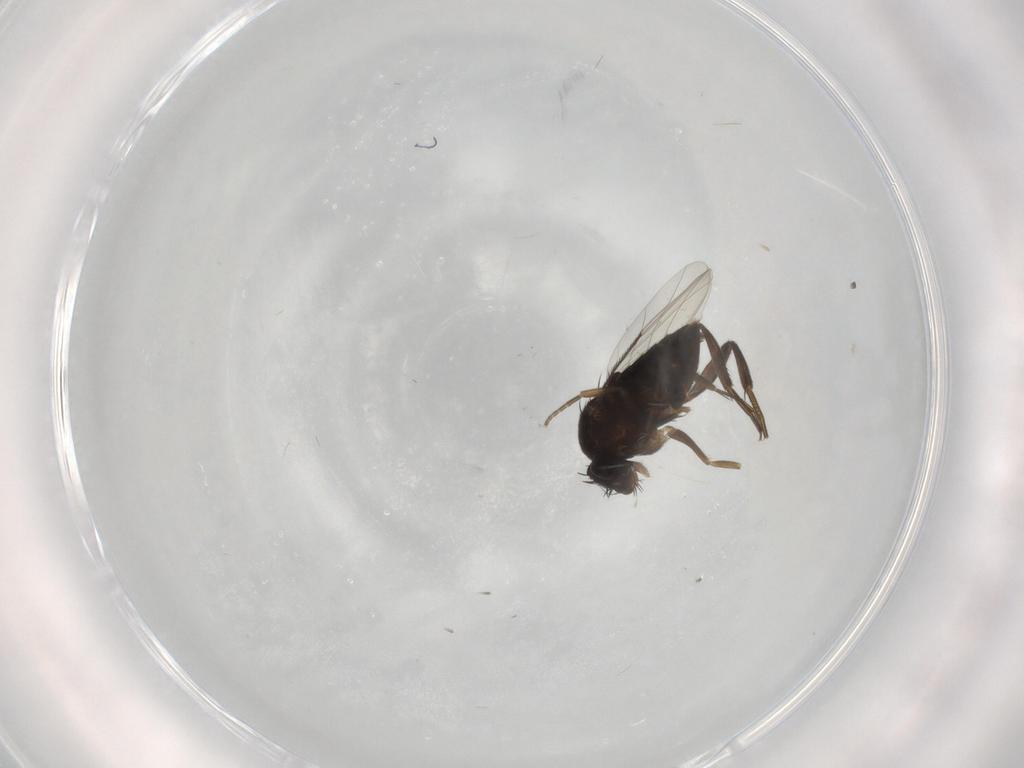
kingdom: Animalia
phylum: Arthropoda
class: Insecta
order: Diptera
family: Phoridae
